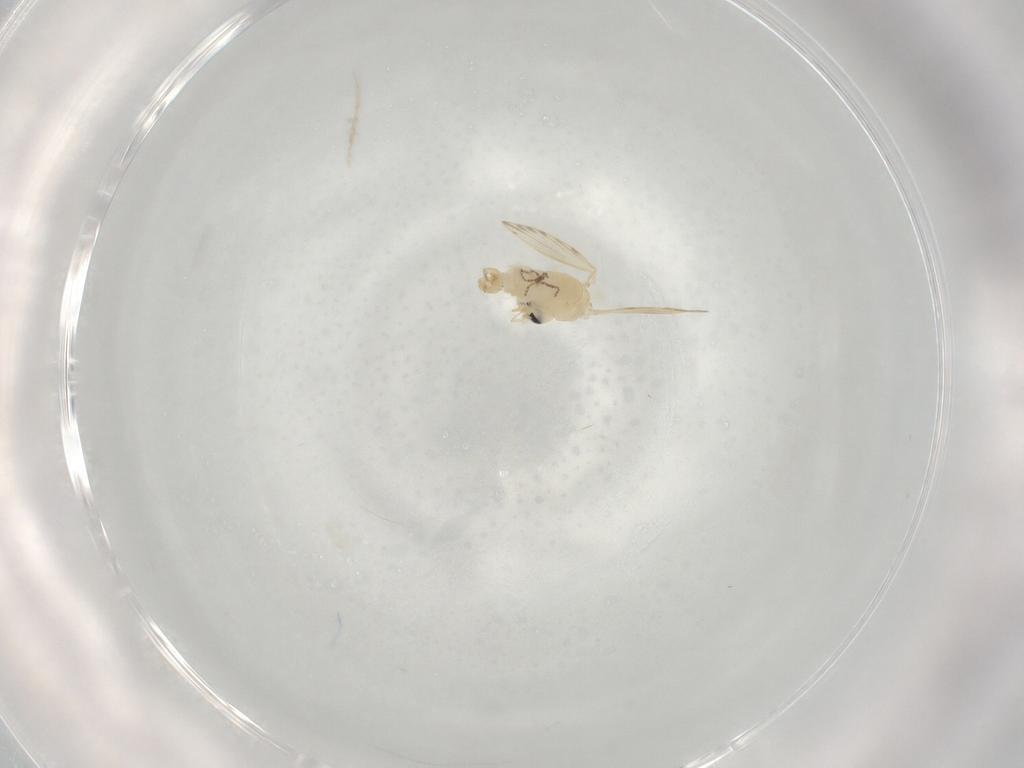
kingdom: Animalia
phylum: Arthropoda
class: Insecta
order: Diptera
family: Psychodidae
